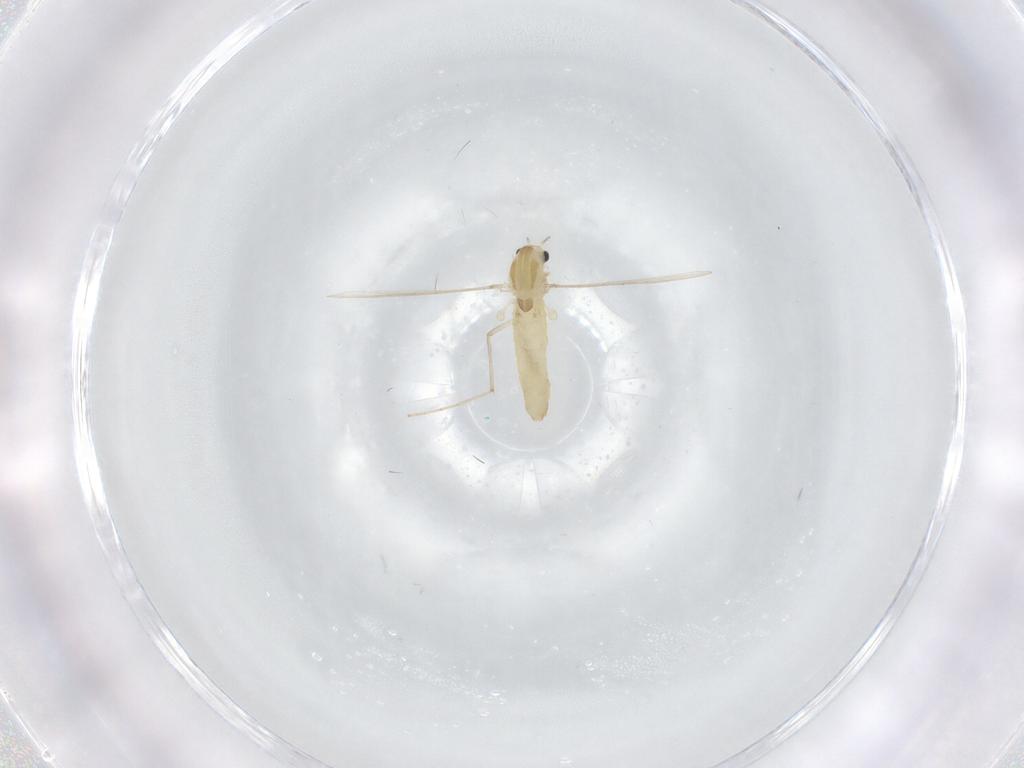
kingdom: Animalia
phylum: Arthropoda
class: Insecta
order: Diptera
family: Chironomidae
